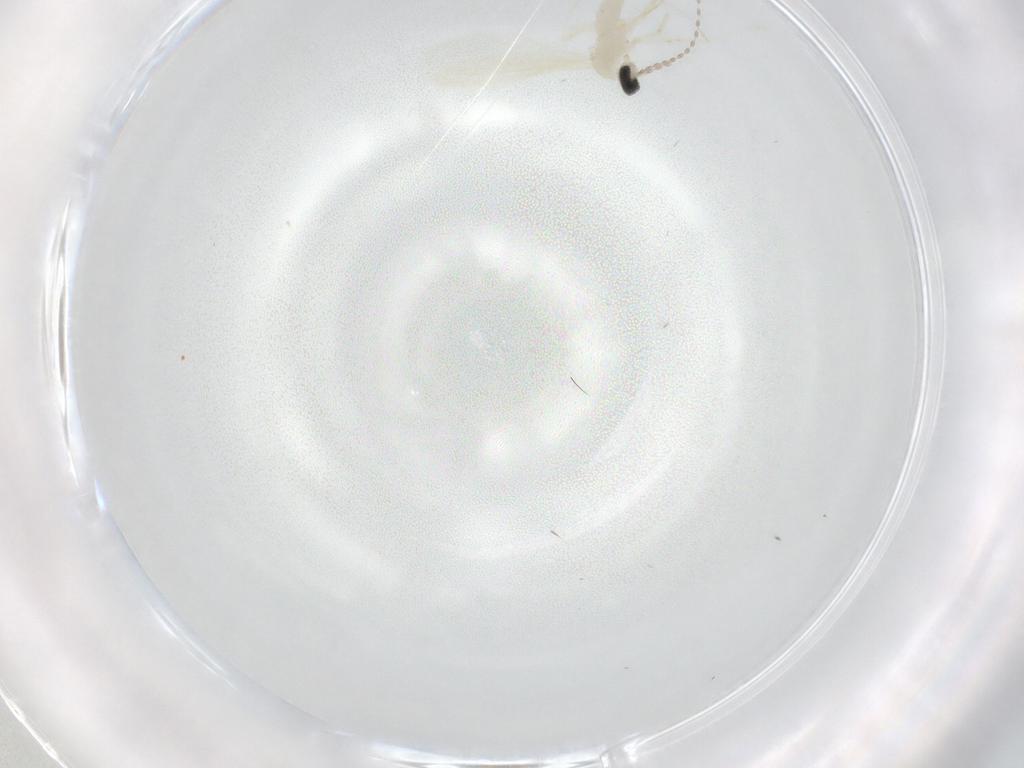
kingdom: Animalia
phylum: Arthropoda
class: Insecta
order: Diptera
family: Cecidomyiidae
